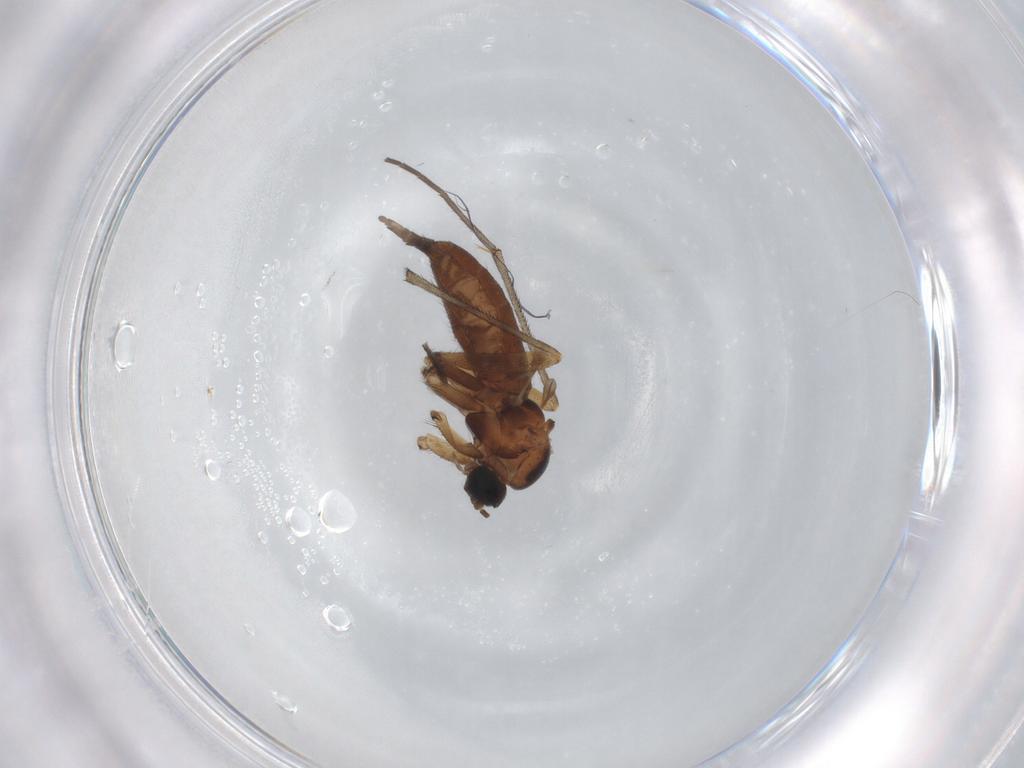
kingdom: Animalia
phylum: Arthropoda
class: Insecta
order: Diptera
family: Bibionidae
